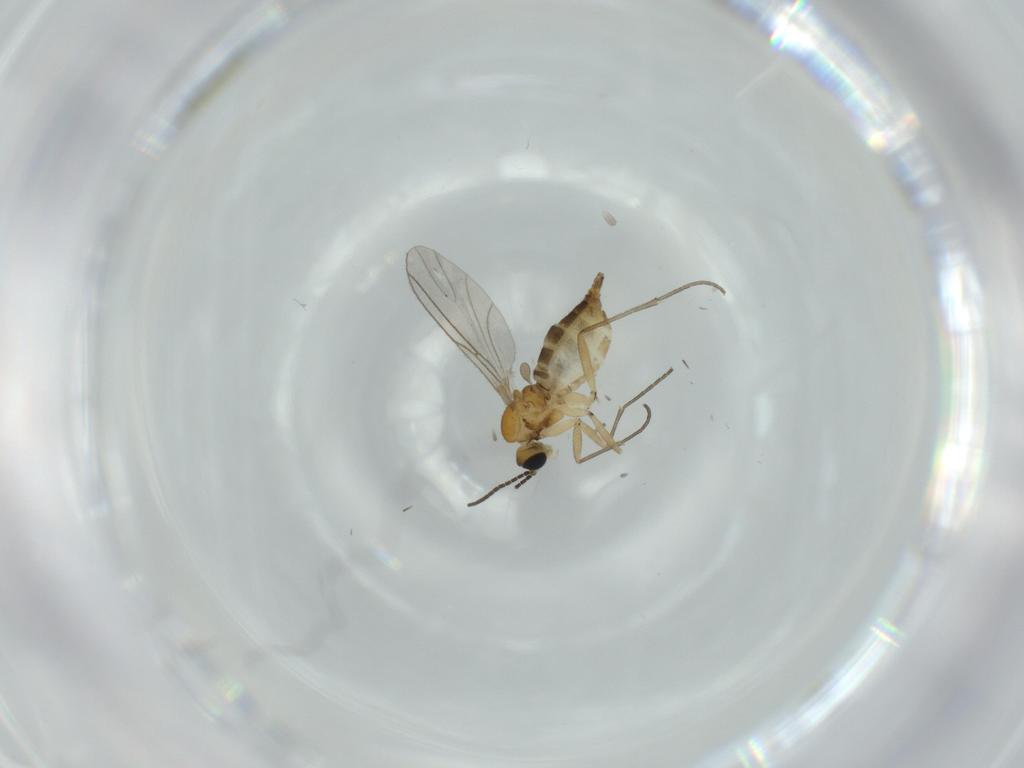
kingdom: Animalia
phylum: Arthropoda
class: Insecta
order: Diptera
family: Sciaridae
